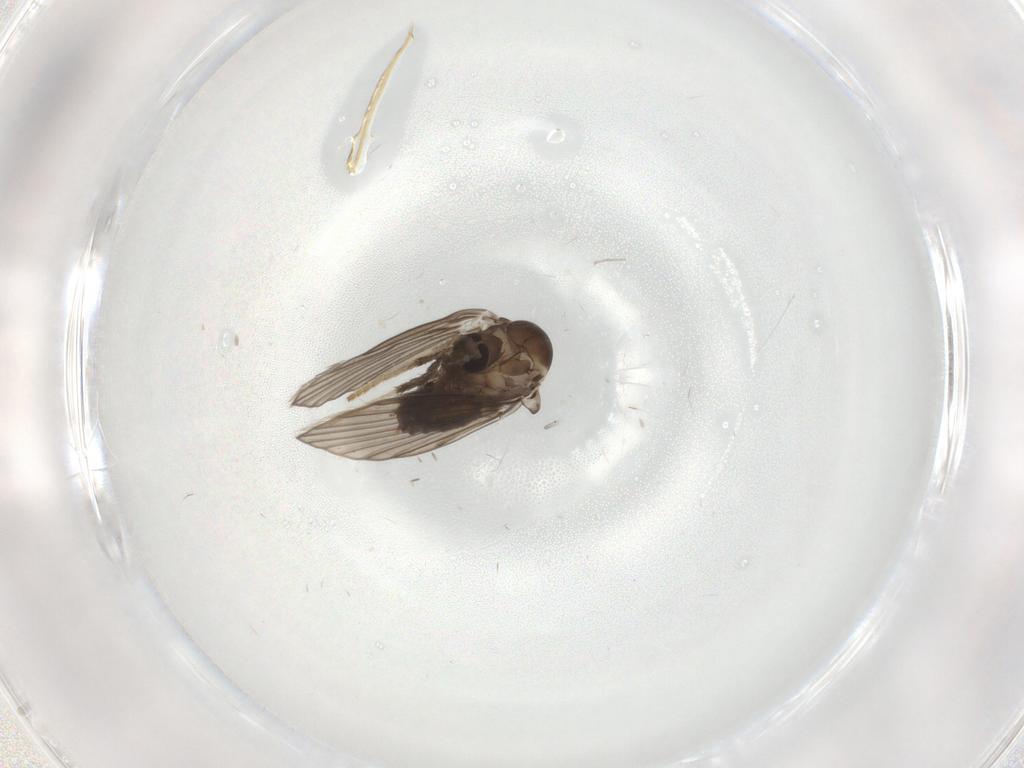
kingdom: Animalia
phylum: Arthropoda
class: Insecta
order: Diptera
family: Psychodidae
